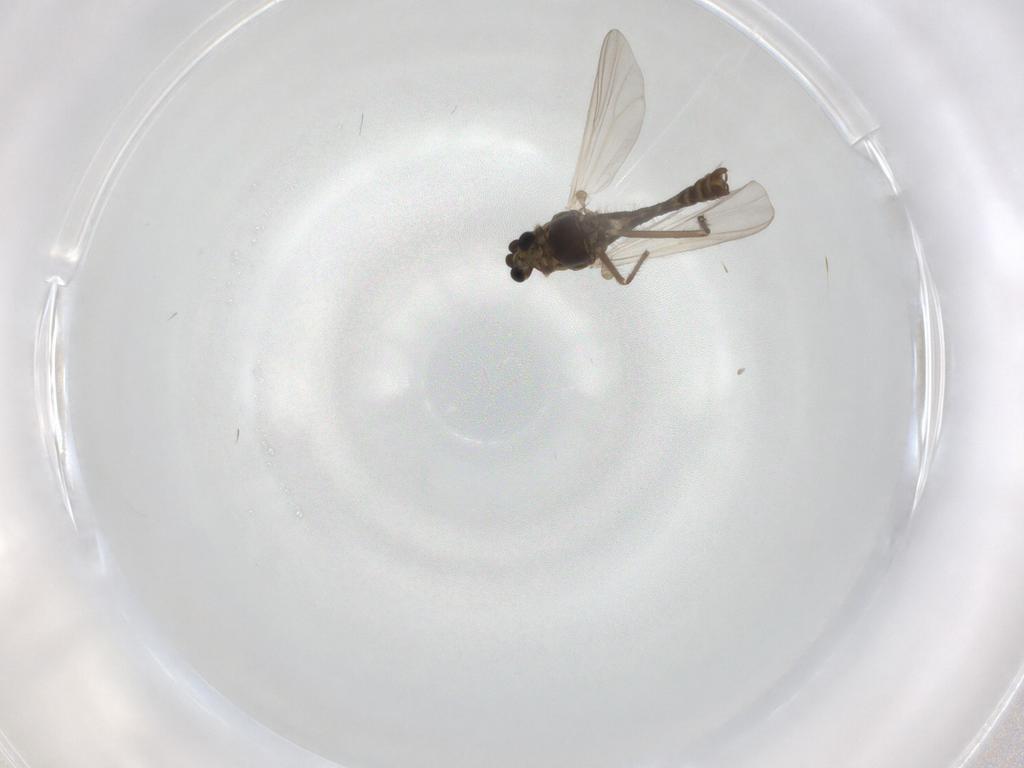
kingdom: Animalia
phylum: Arthropoda
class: Insecta
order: Diptera
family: Chironomidae
